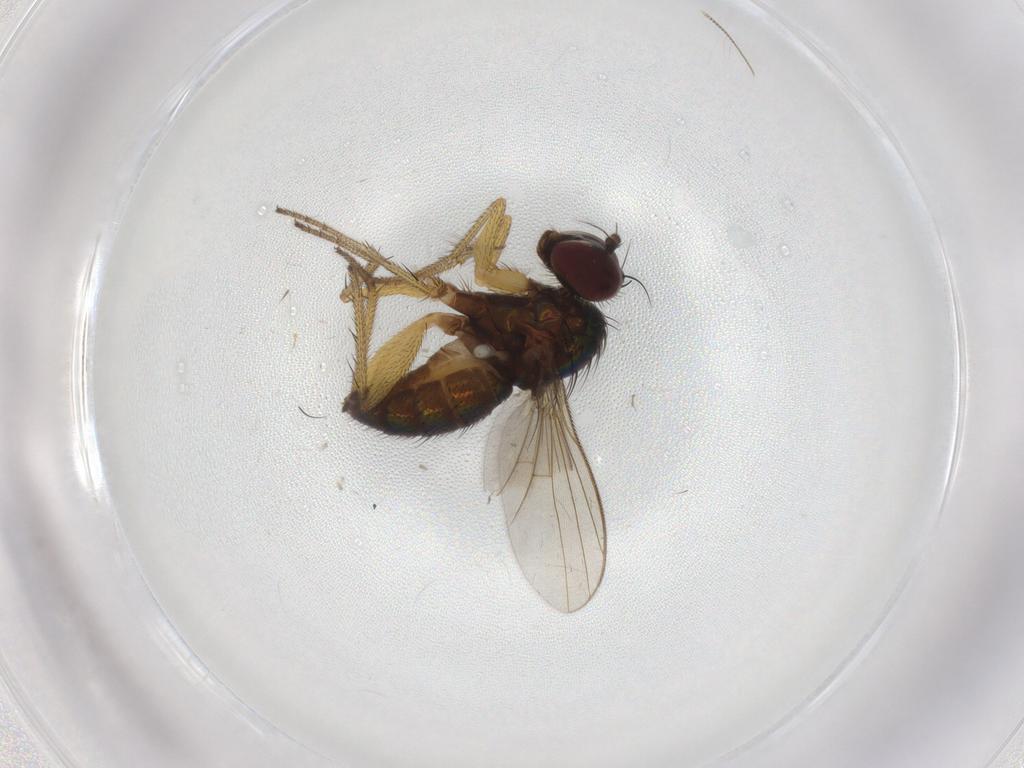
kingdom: Animalia
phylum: Arthropoda
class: Insecta
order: Diptera
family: Dolichopodidae
